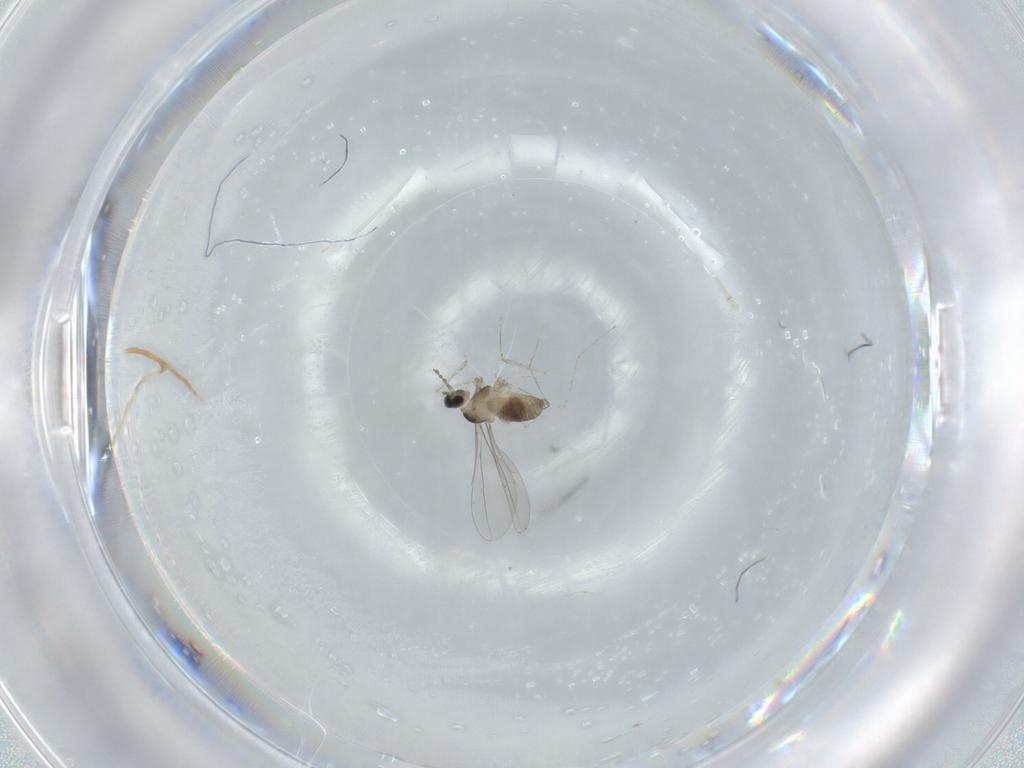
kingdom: Animalia
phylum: Arthropoda
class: Insecta
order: Diptera
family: Cecidomyiidae
